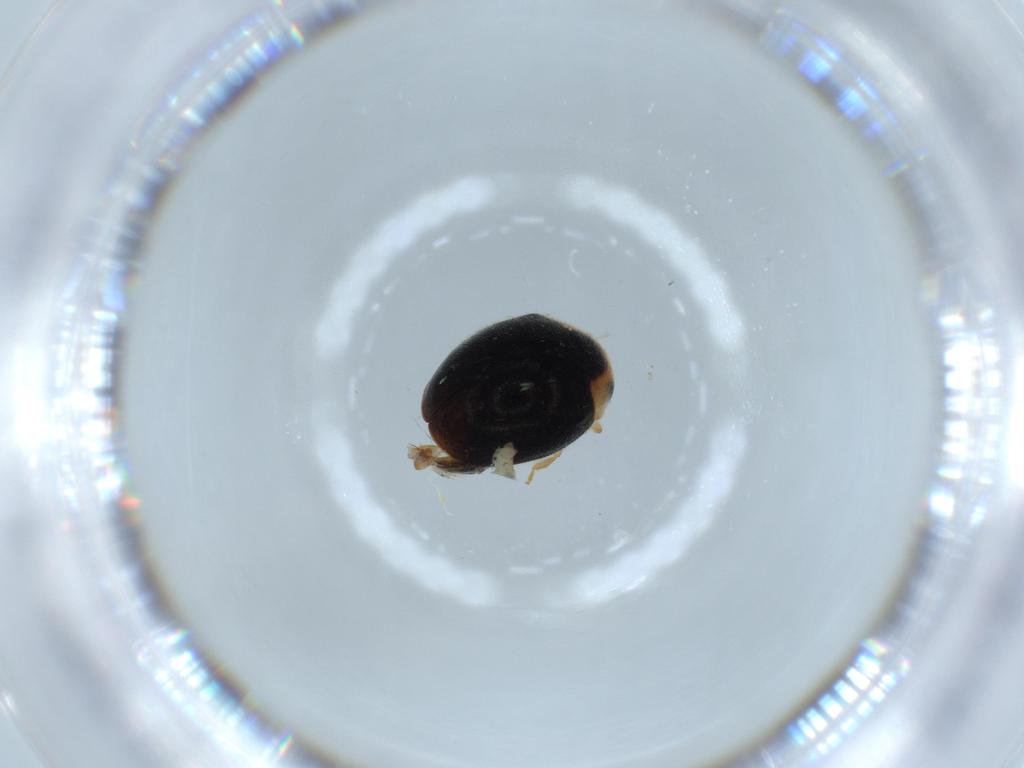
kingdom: Animalia
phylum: Arthropoda
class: Insecta
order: Coleoptera
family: Coccinellidae
